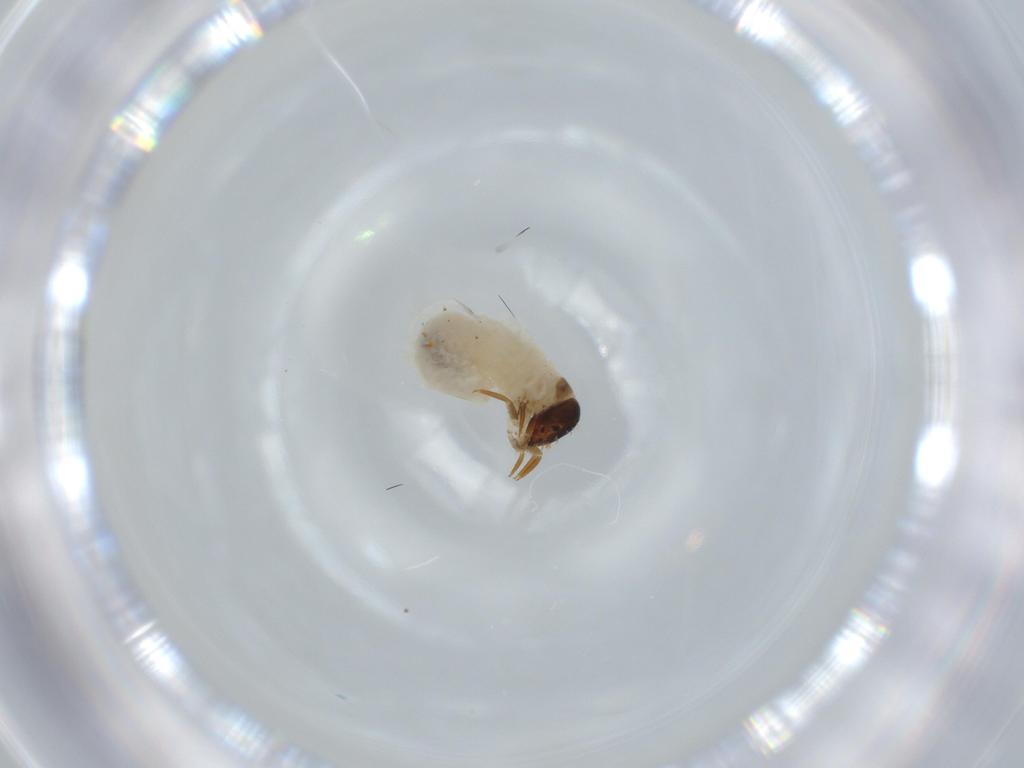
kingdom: Animalia
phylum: Arthropoda
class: Insecta
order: Coleoptera
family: Chrysomelidae
